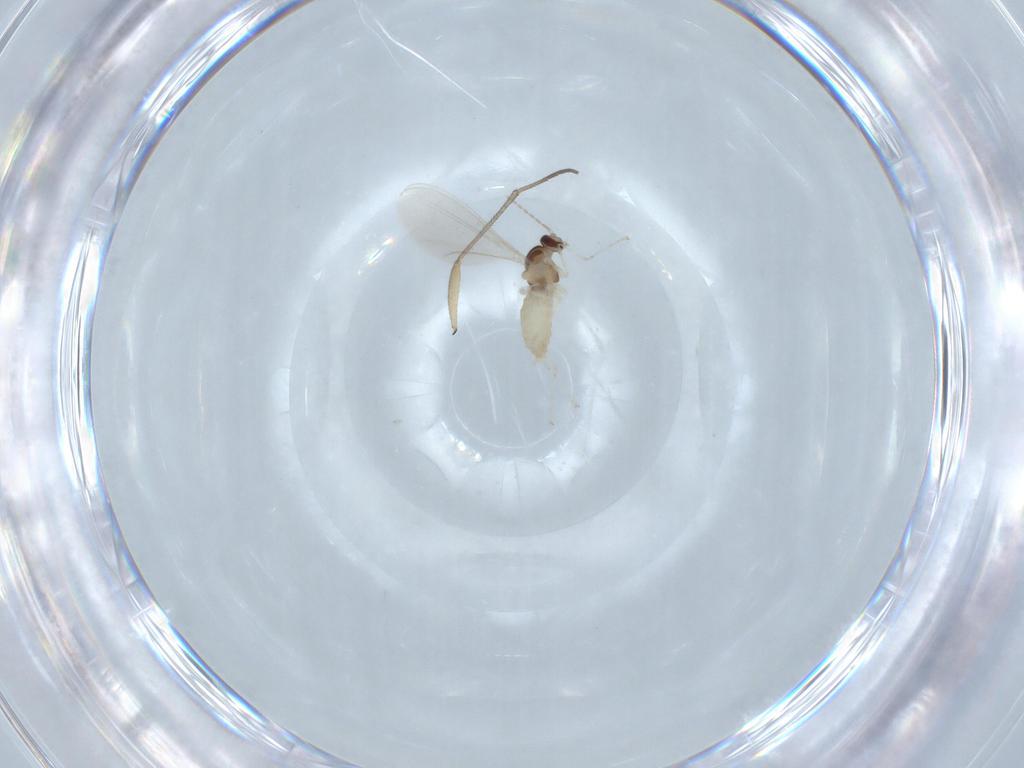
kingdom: Animalia
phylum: Arthropoda
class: Insecta
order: Diptera
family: Cecidomyiidae
